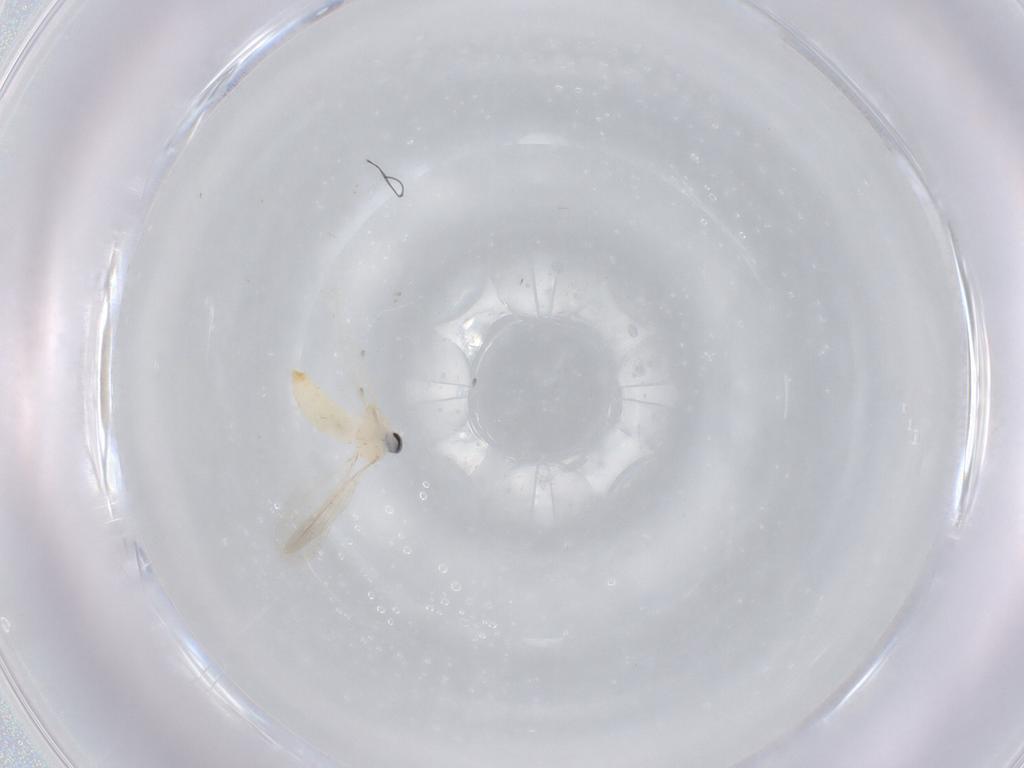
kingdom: Animalia
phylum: Arthropoda
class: Insecta
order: Diptera
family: Cecidomyiidae
